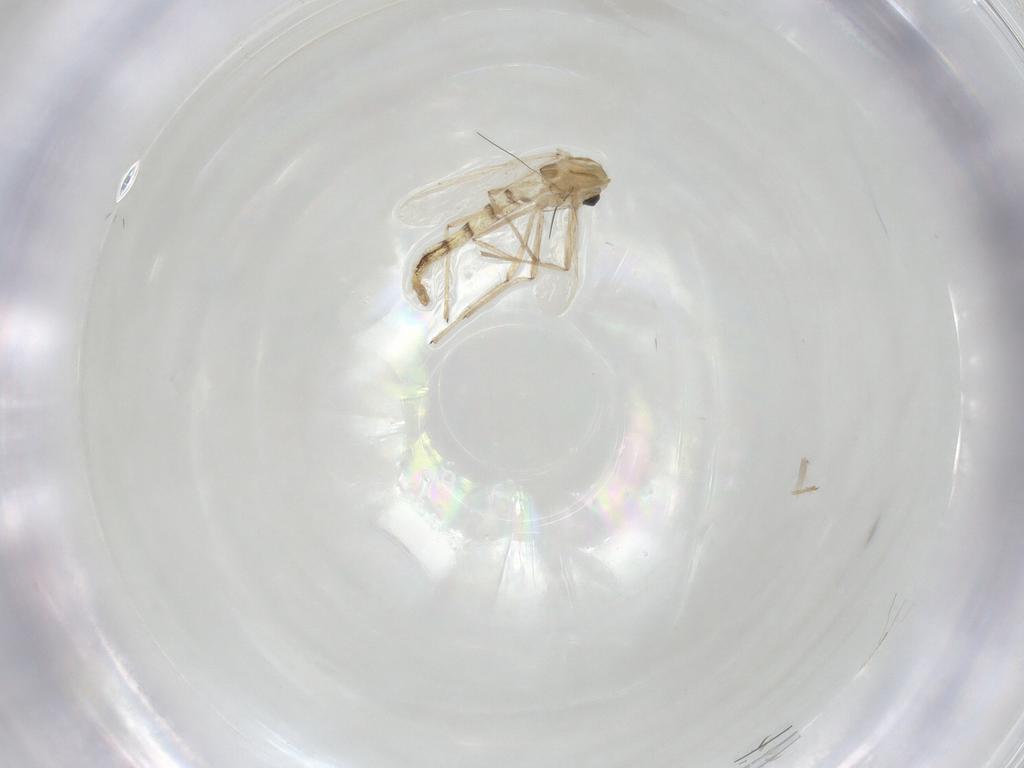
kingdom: Animalia
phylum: Arthropoda
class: Insecta
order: Diptera
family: Chironomidae
